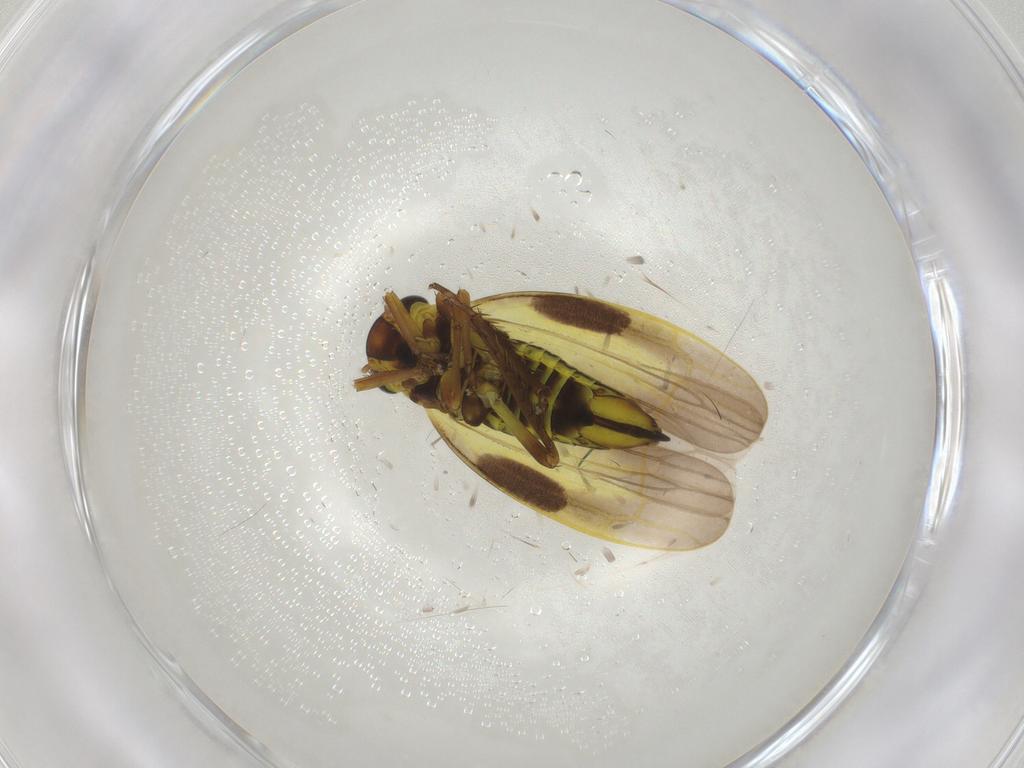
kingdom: Animalia
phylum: Arthropoda
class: Insecta
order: Hemiptera
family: Cicadellidae
